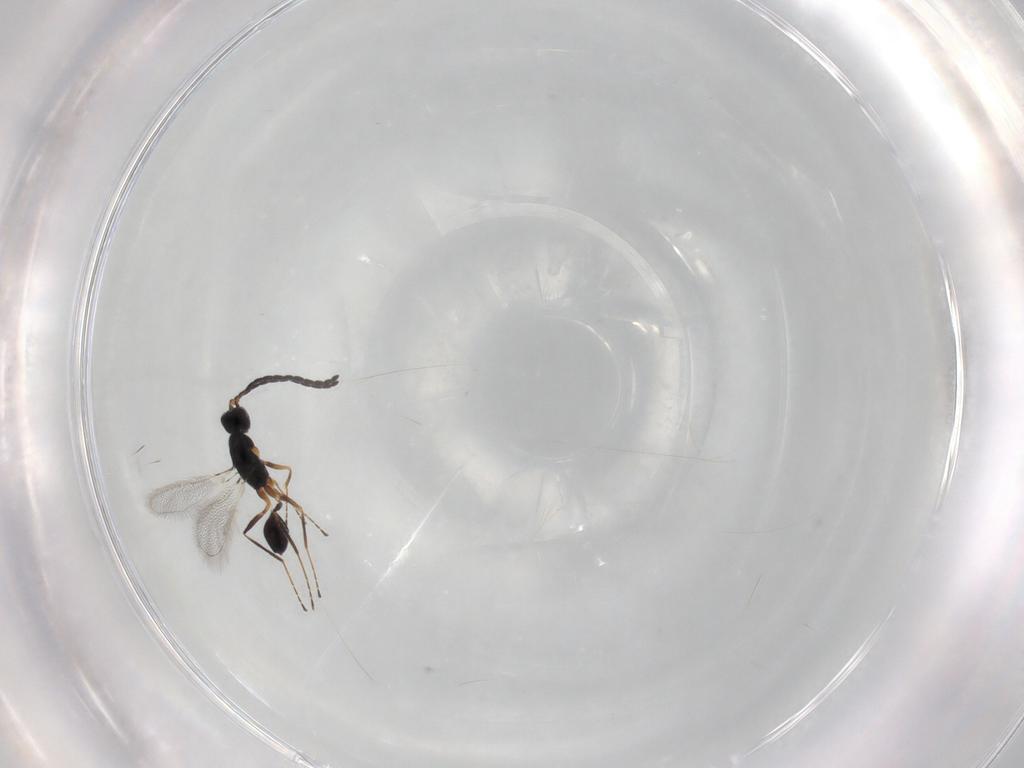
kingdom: Animalia
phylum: Arthropoda
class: Insecta
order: Hymenoptera
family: Mymaridae
